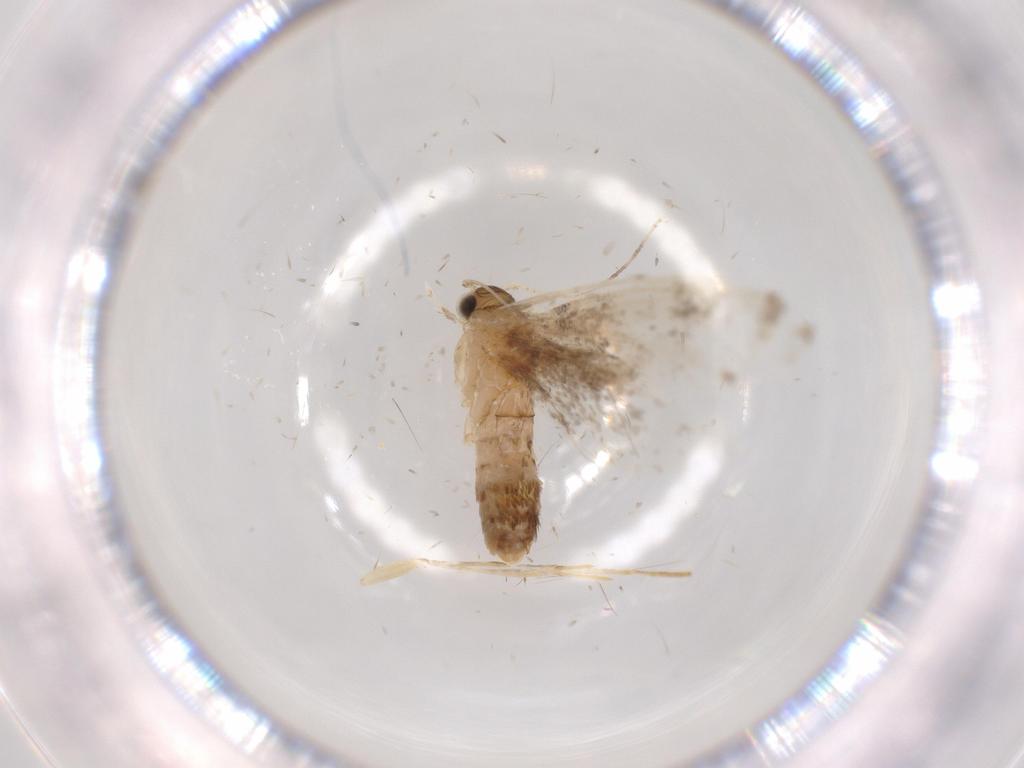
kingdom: Animalia
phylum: Arthropoda
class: Insecta
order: Lepidoptera
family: Tineidae
